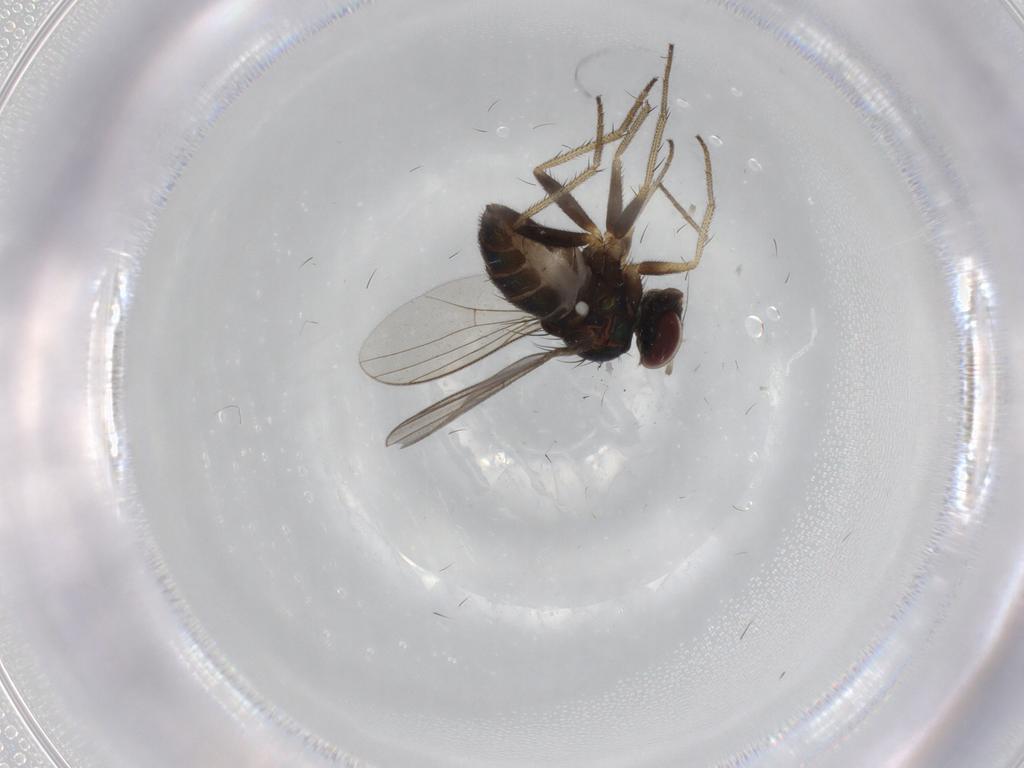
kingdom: Animalia
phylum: Arthropoda
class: Insecta
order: Diptera
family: Dolichopodidae
